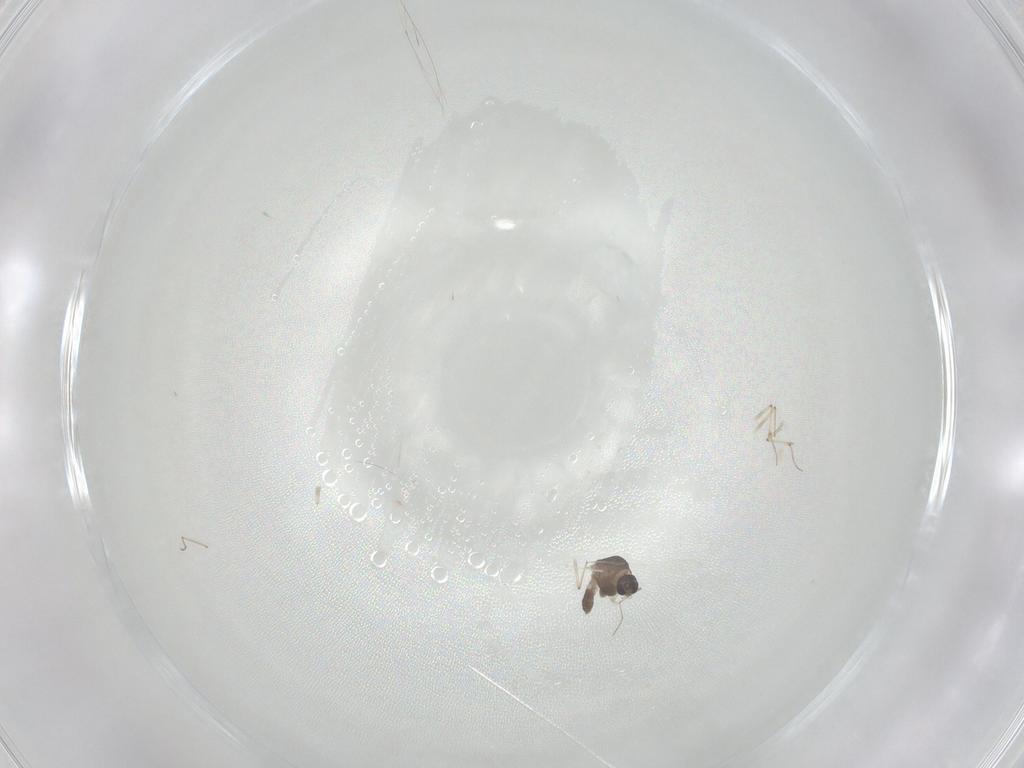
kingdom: Animalia
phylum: Arthropoda
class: Insecta
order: Diptera
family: Chironomidae
